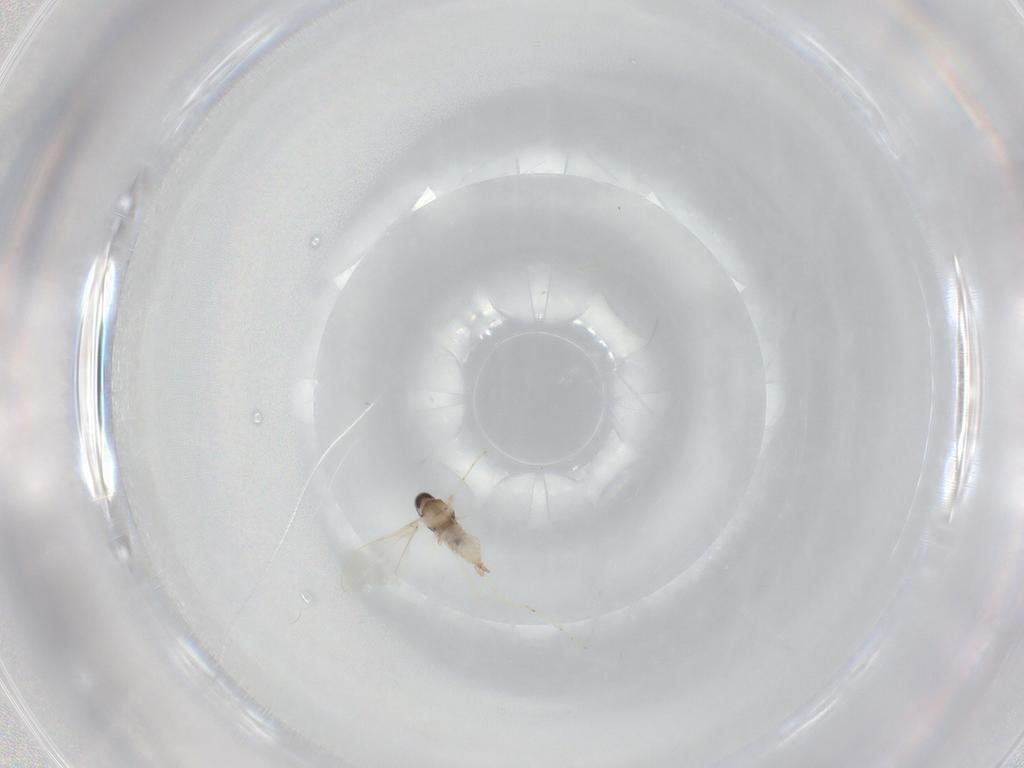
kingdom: Animalia
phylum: Arthropoda
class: Insecta
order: Diptera
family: Cecidomyiidae
